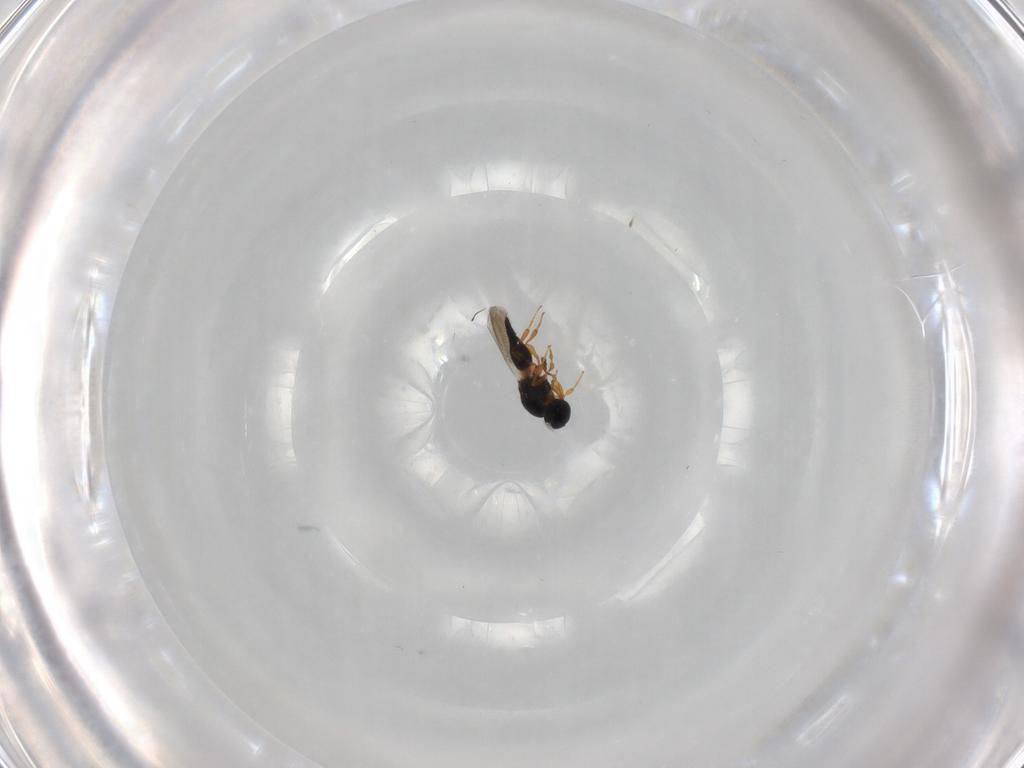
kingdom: Animalia
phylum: Arthropoda
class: Insecta
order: Hymenoptera
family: Platygastridae
